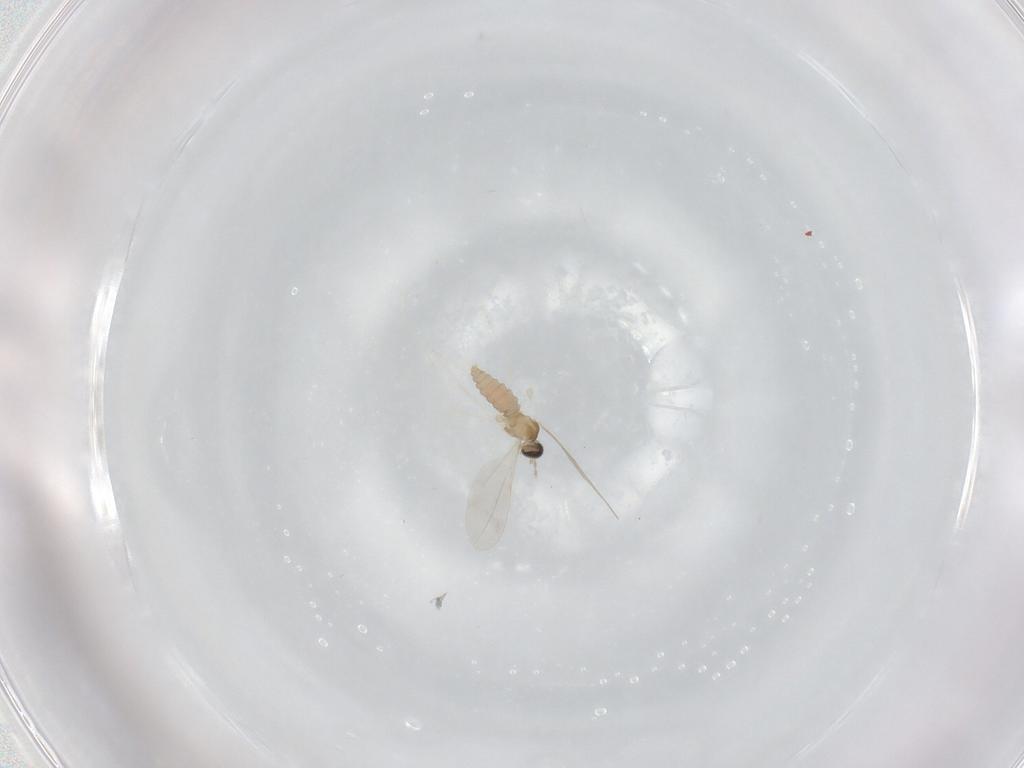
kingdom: Animalia
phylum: Arthropoda
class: Insecta
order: Diptera
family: Cecidomyiidae
